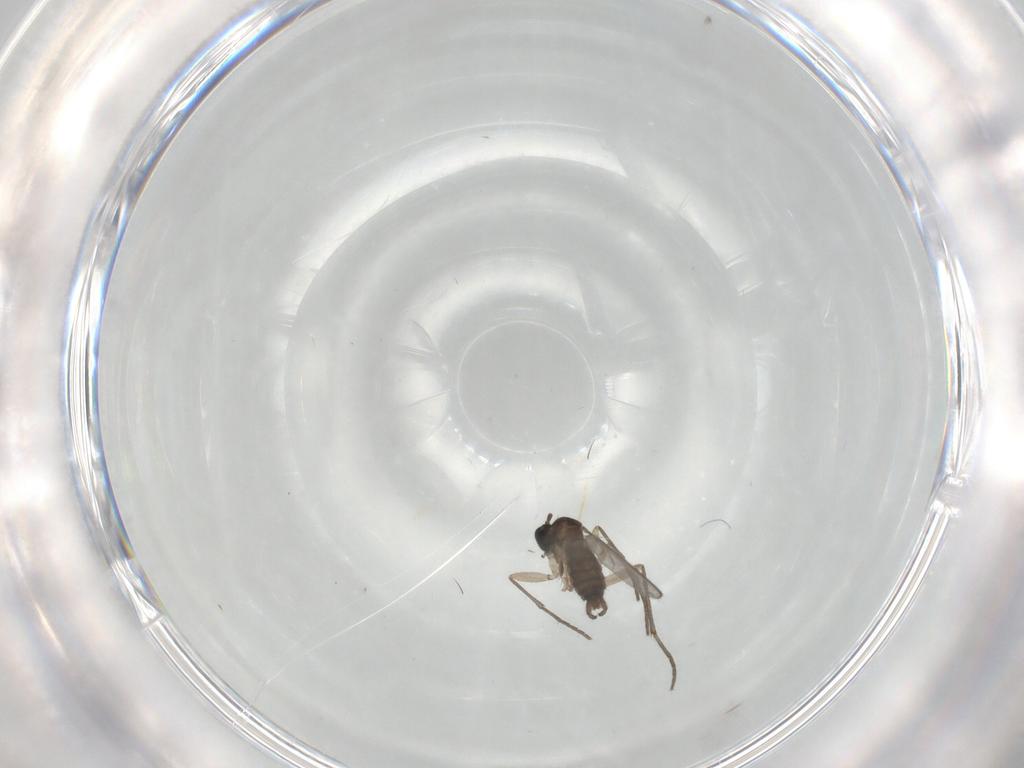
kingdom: Animalia
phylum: Arthropoda
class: Insecta
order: Diptera
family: Sciaridae
